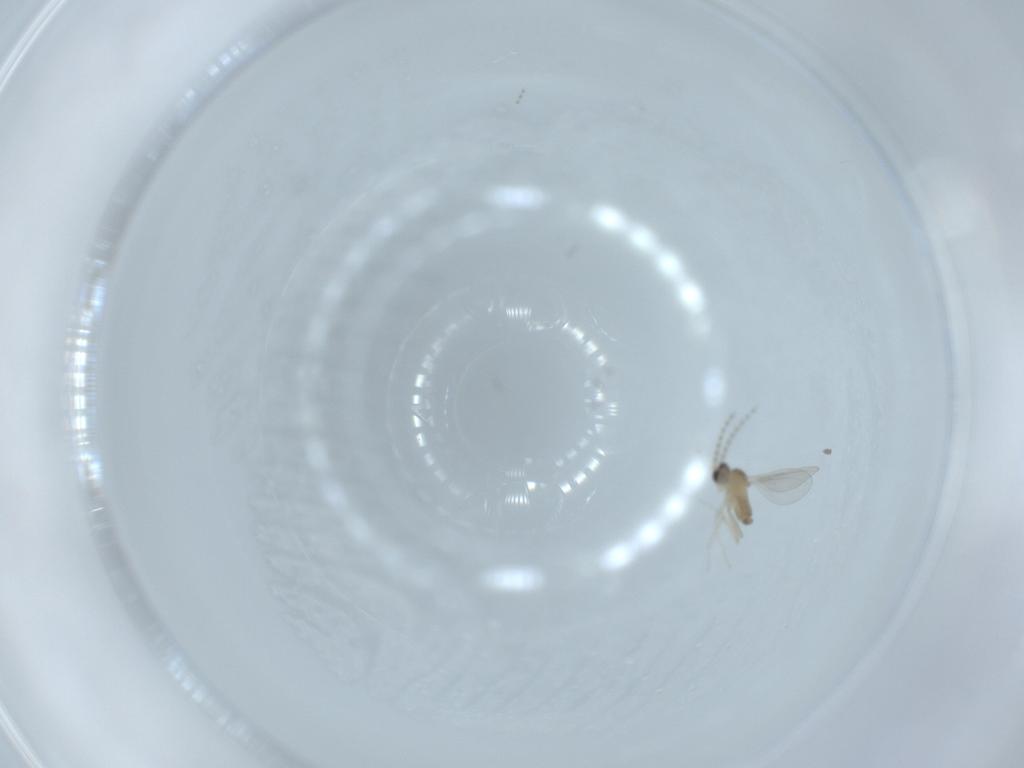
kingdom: Animalia
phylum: Arthropoda
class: Insecta
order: Diptera
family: Cecidomyiidae
